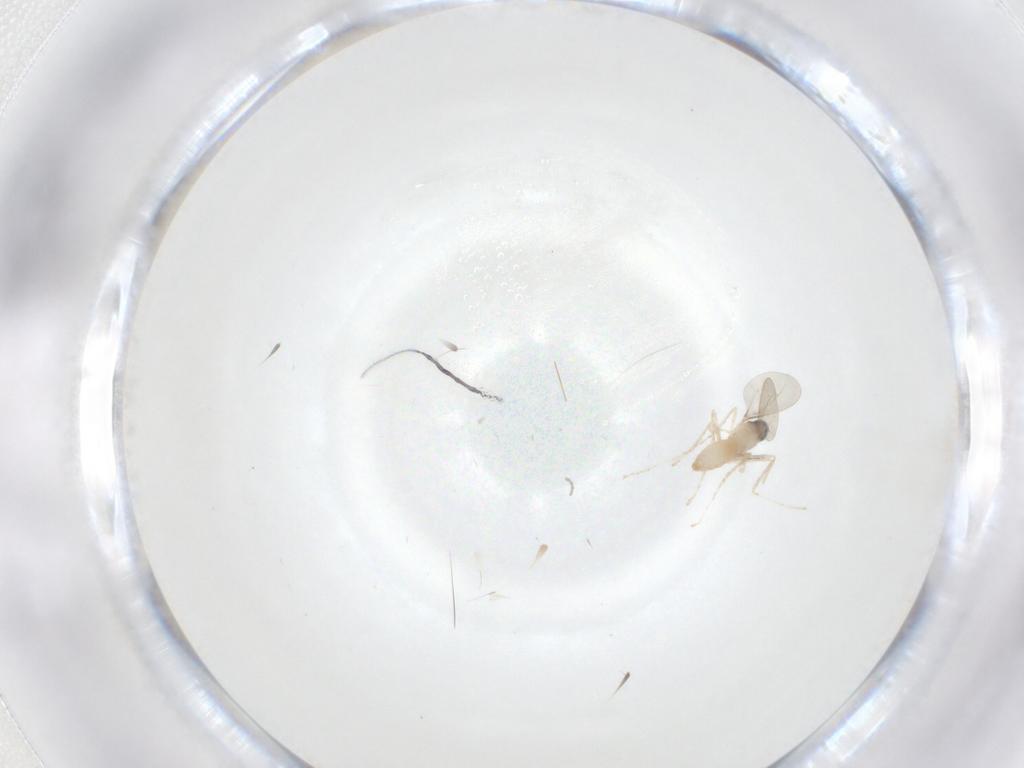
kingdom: Animalia
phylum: Arthropoda
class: Insecta
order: Diptera
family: Cecidomyiidae
